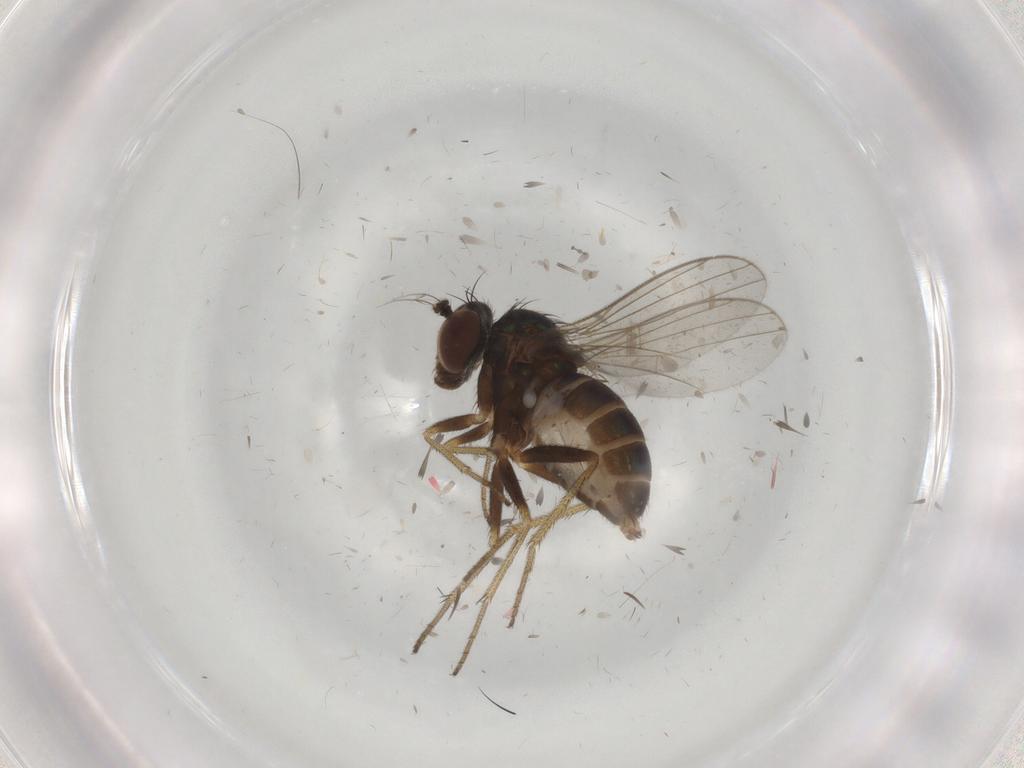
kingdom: Animalia
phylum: Arthropoda
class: Insecta
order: Diptera
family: Dolichopodidae
